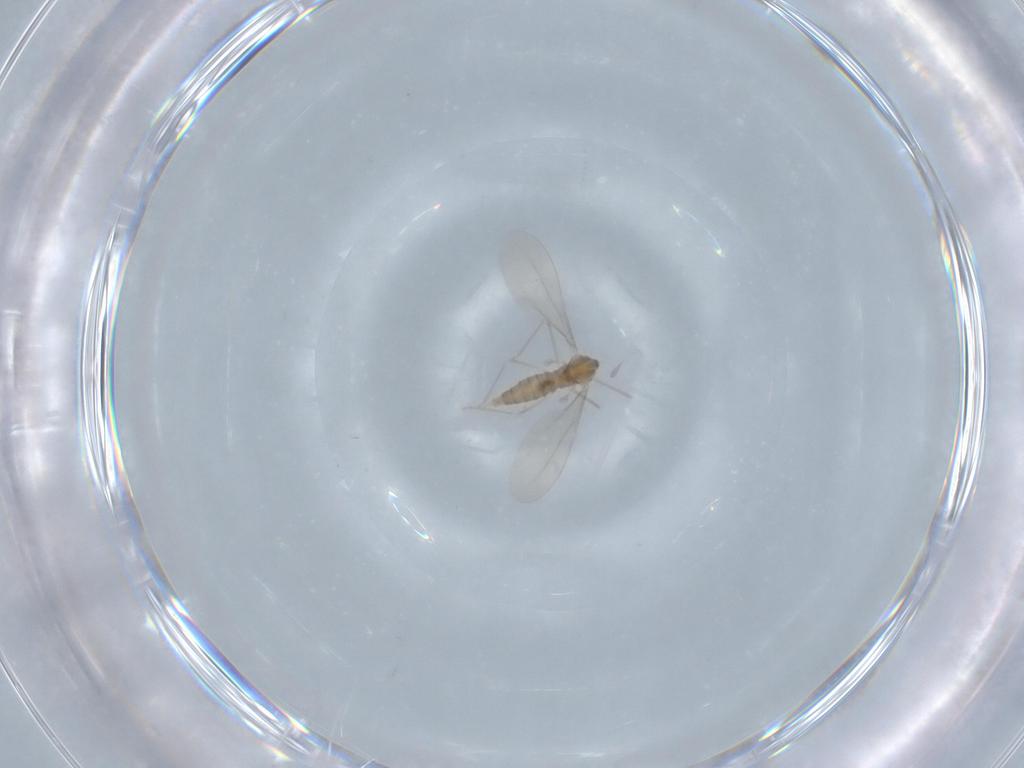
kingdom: Animalia
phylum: Arthropoda
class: Insecta
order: Diptera
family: Cecidomyiidae
